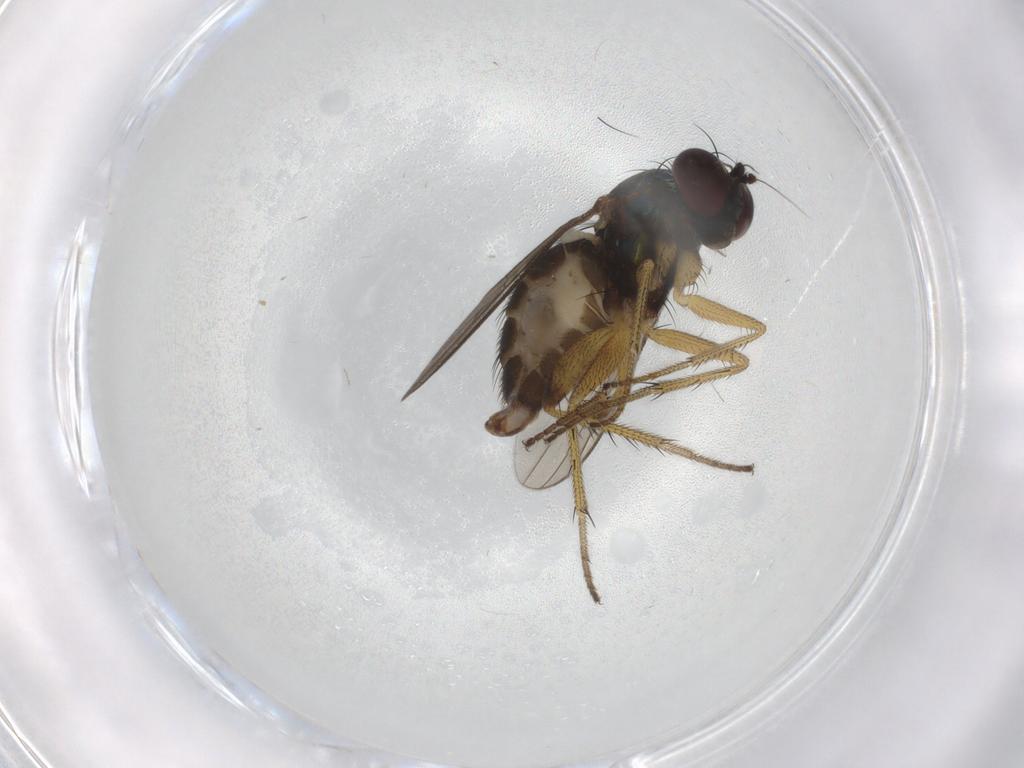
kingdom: Animalia
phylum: Arthropoda
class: Insecta
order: Diptera
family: Dolichopodidae
